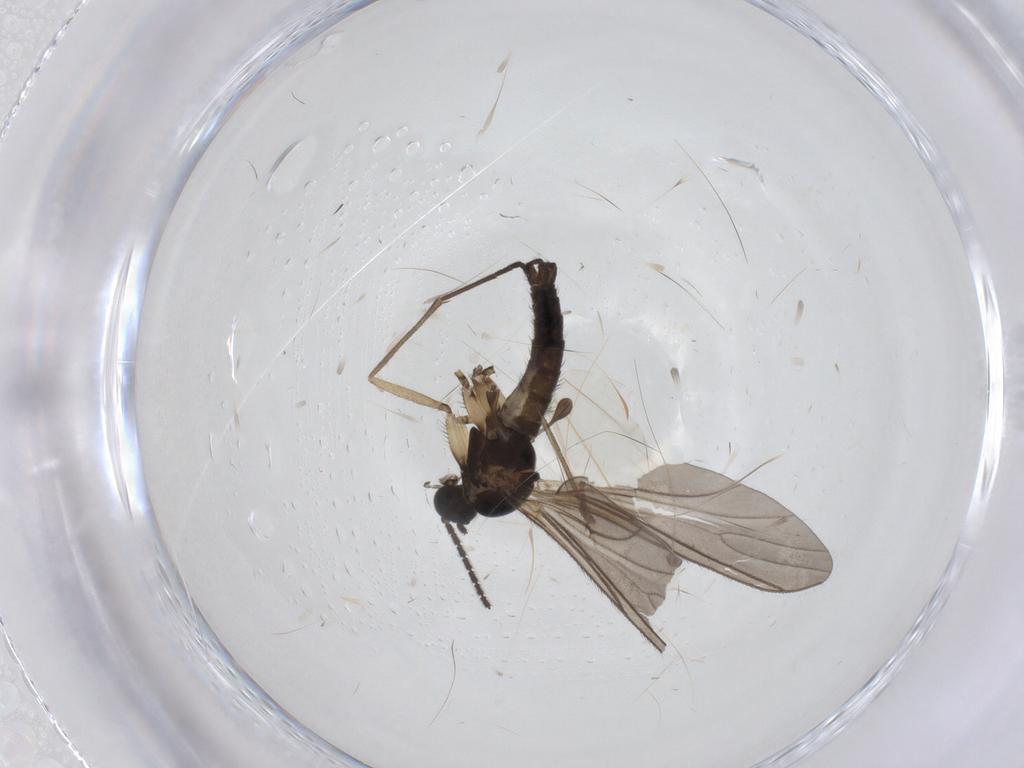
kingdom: Animalia
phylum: Arthropoda
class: Insecta
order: Diptera
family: Sciaridae
